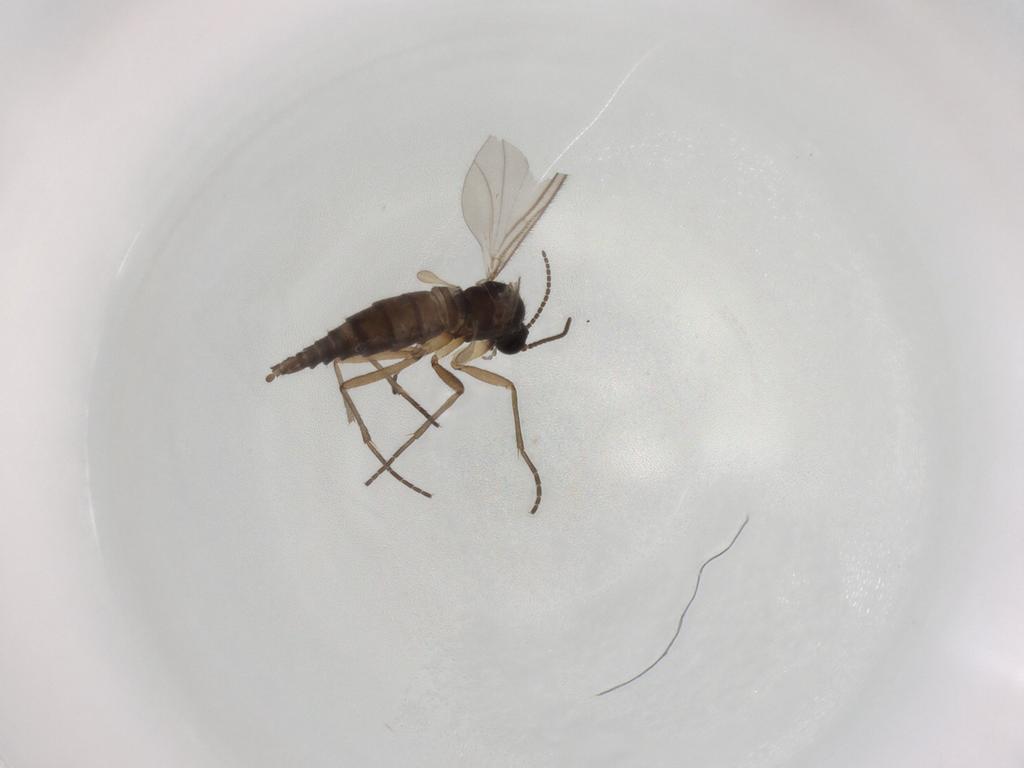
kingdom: Animalia
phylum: Arthropoda
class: Insecta
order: Diptera
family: Sciaridae
